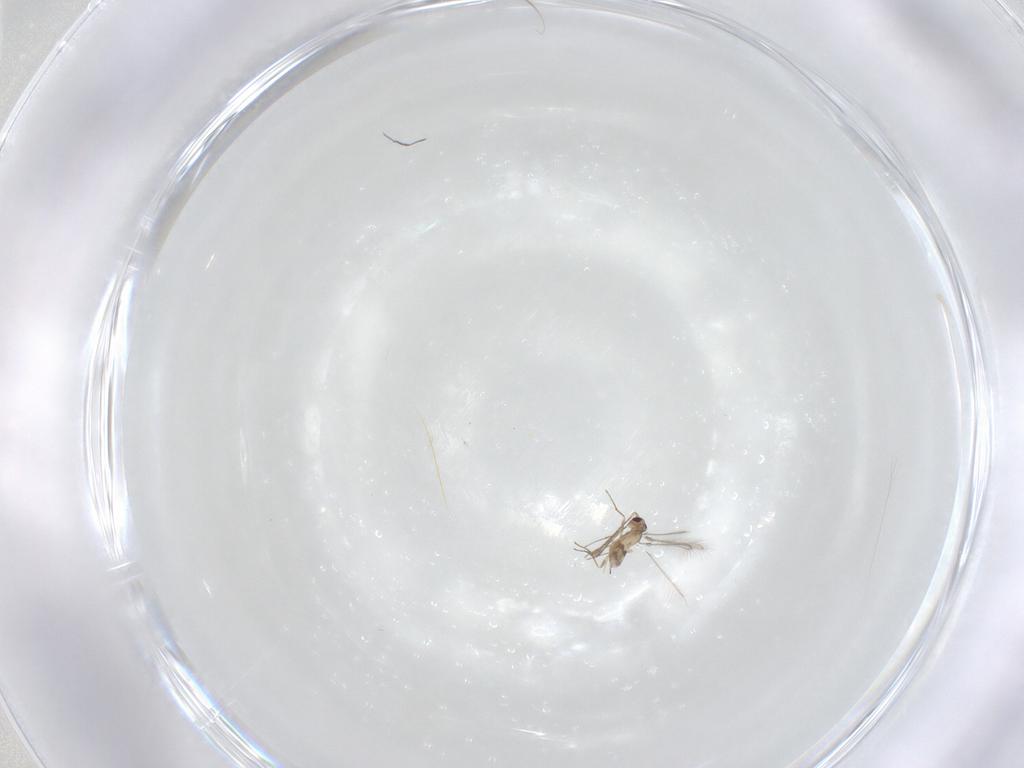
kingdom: Animalia
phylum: Arthropoda
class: Insecta
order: Hymenoptera
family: Mymaridae
